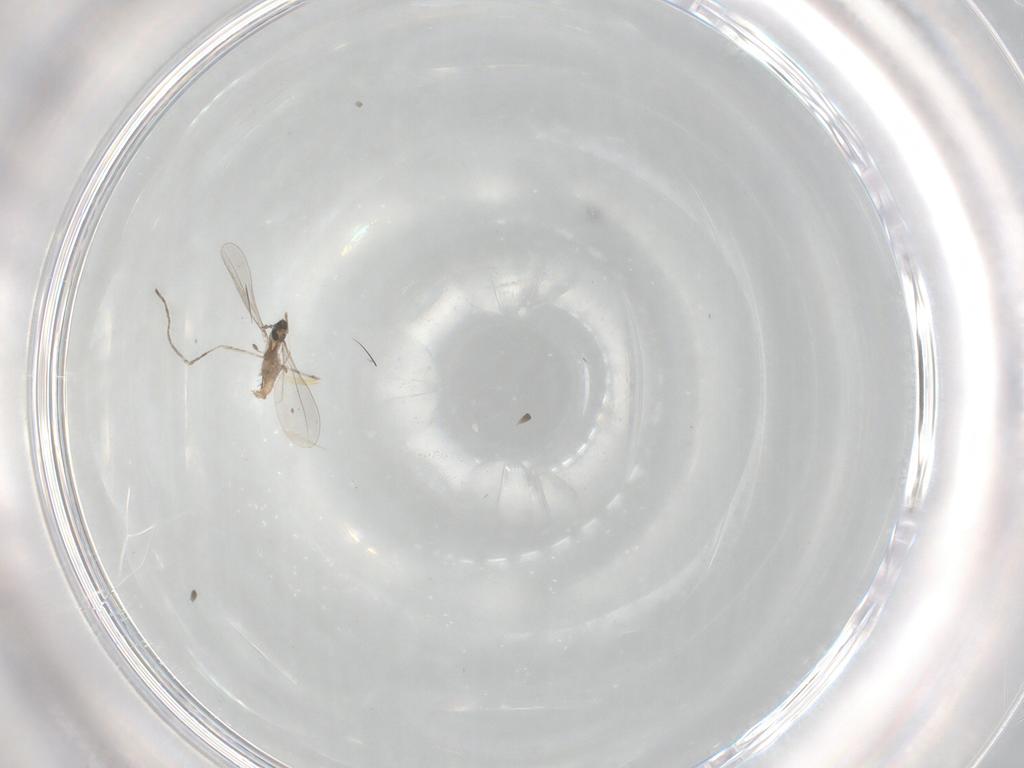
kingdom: Animalia
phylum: Arthropoda
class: Insecta
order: Diptera
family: Cecidomyiidae
